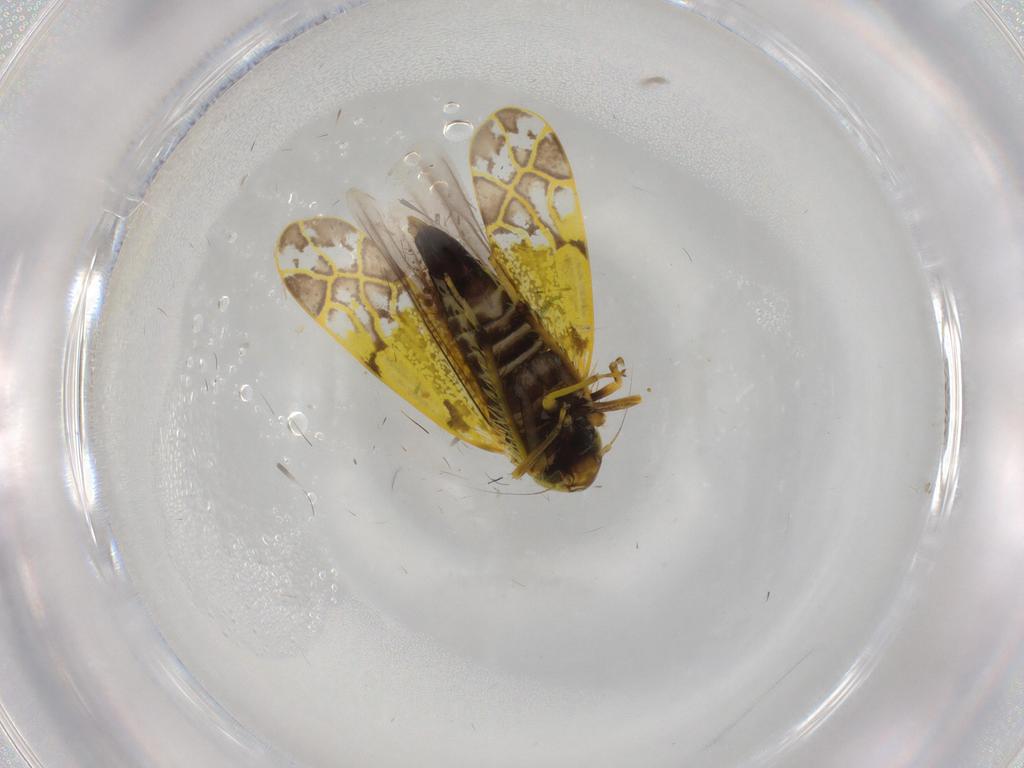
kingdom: Animalia
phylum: Arthropoda
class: Insecta
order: Hemiptera
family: Cicadellidae
